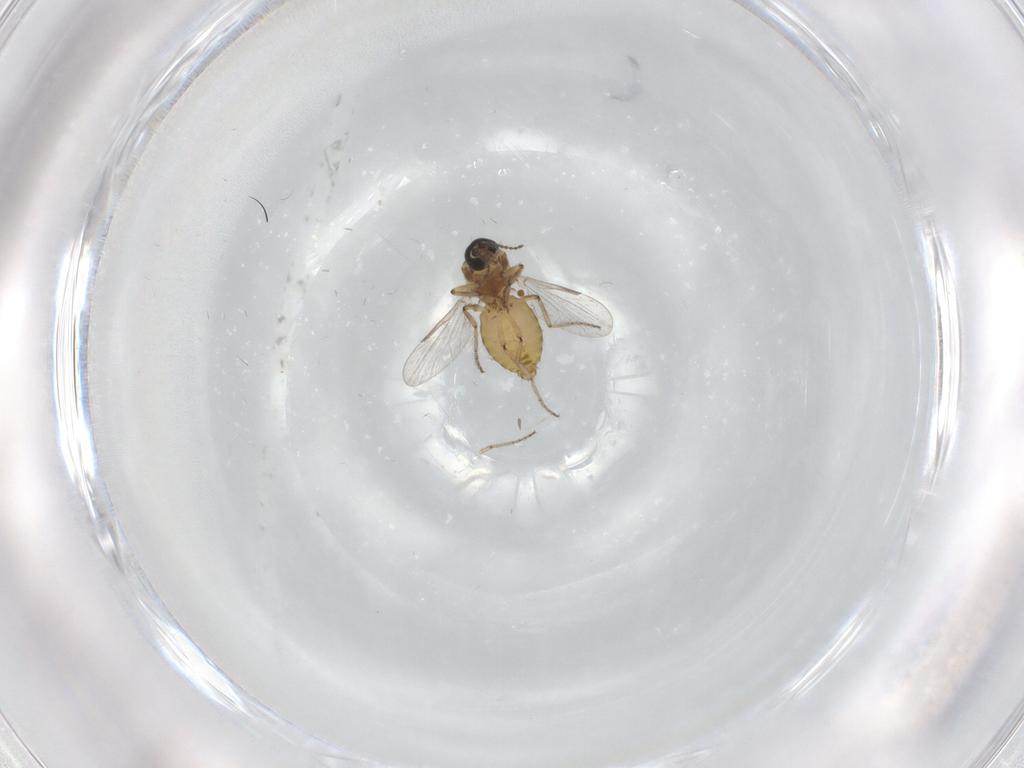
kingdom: Animalia
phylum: Arthropoda
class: Insecta
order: Diptera
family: Ceratopogonidae
